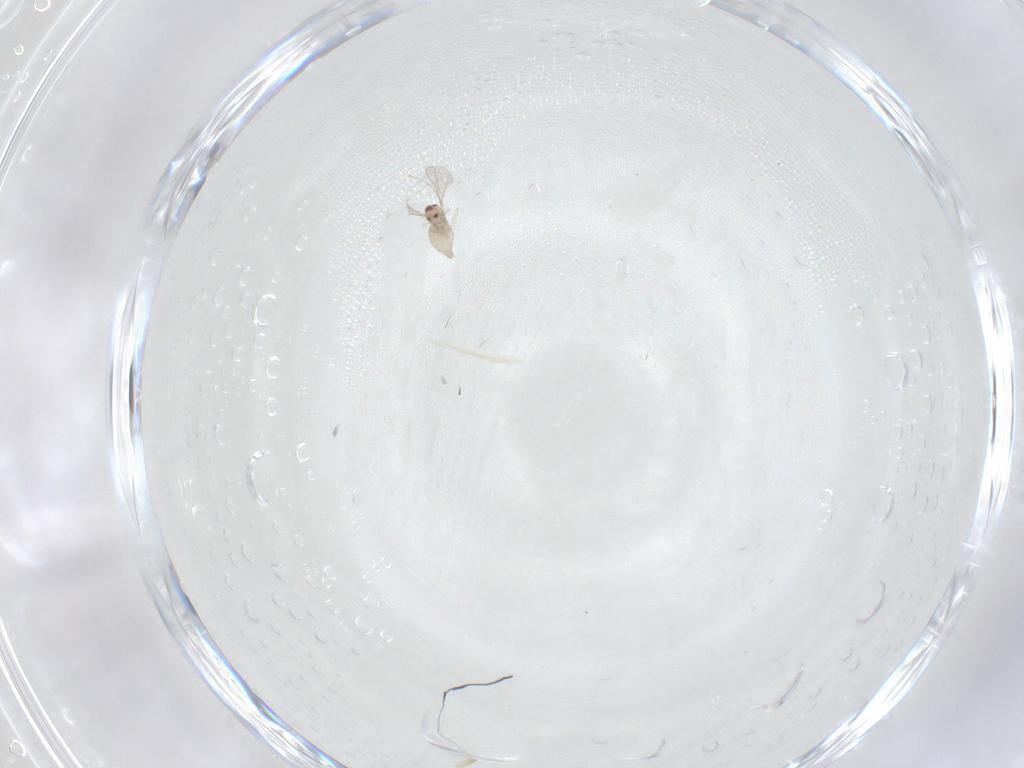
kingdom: Animalia
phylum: Arthropoda
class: Insecta
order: Diptera
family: Cecidomyiidae
